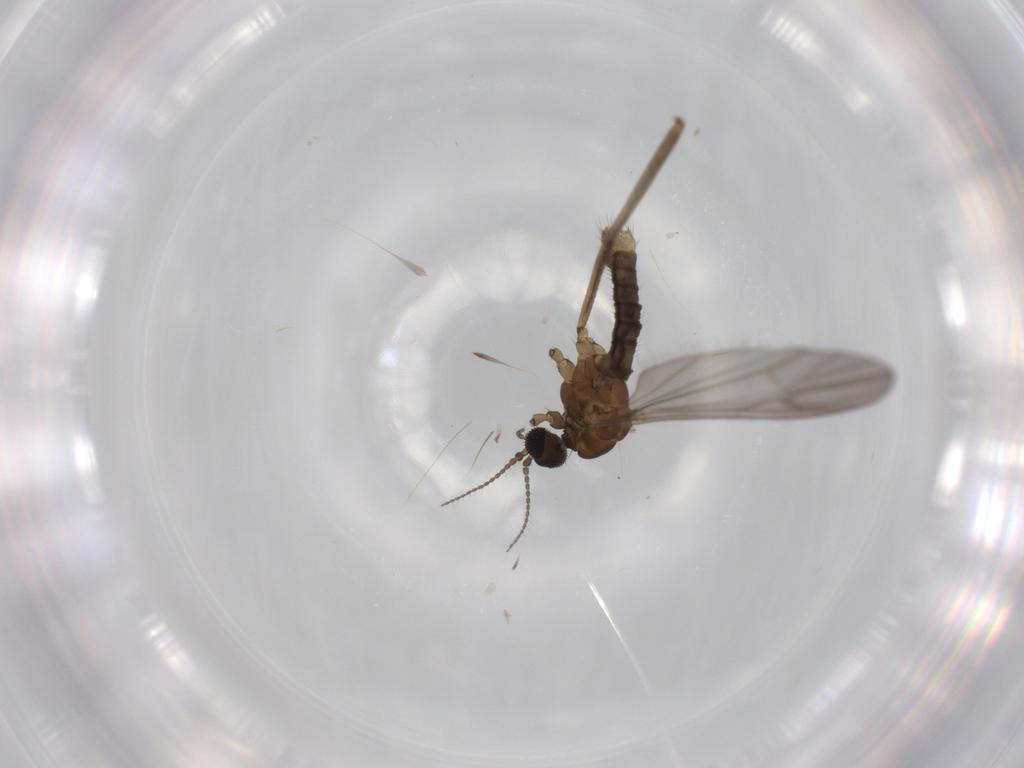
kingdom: Animalia
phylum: Arthropoda
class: Insecta
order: Diptera
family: Limoniidae
